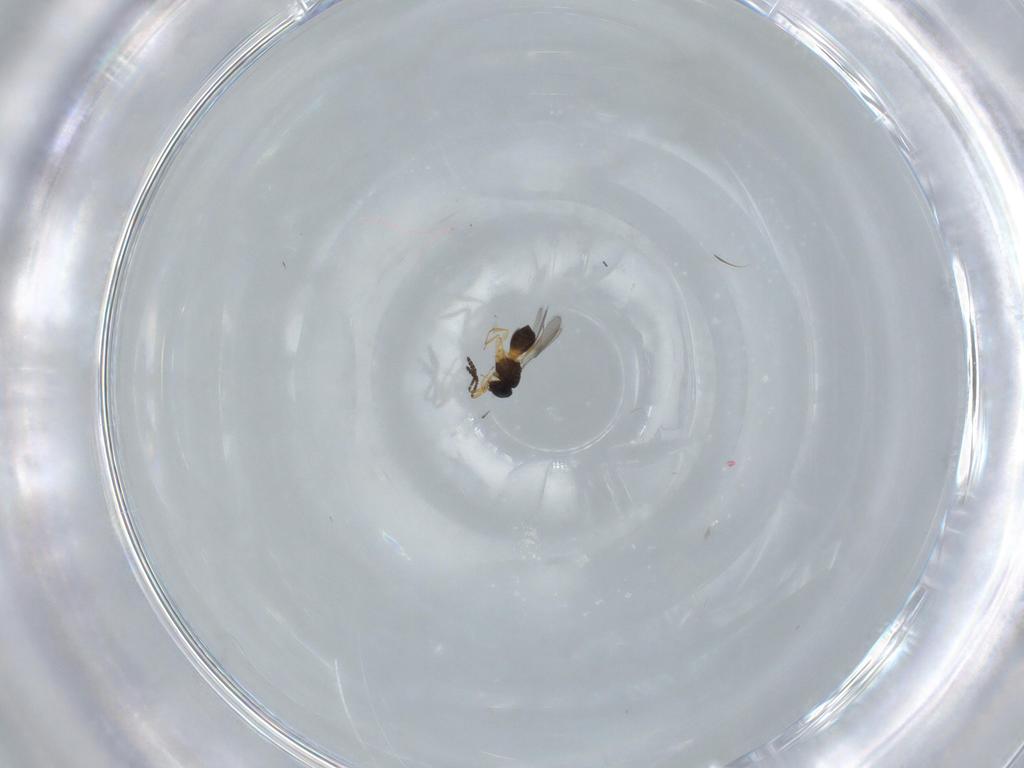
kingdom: Animalia
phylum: Arthropoda
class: Insecta
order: Hymenoptera
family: Scelionidae
